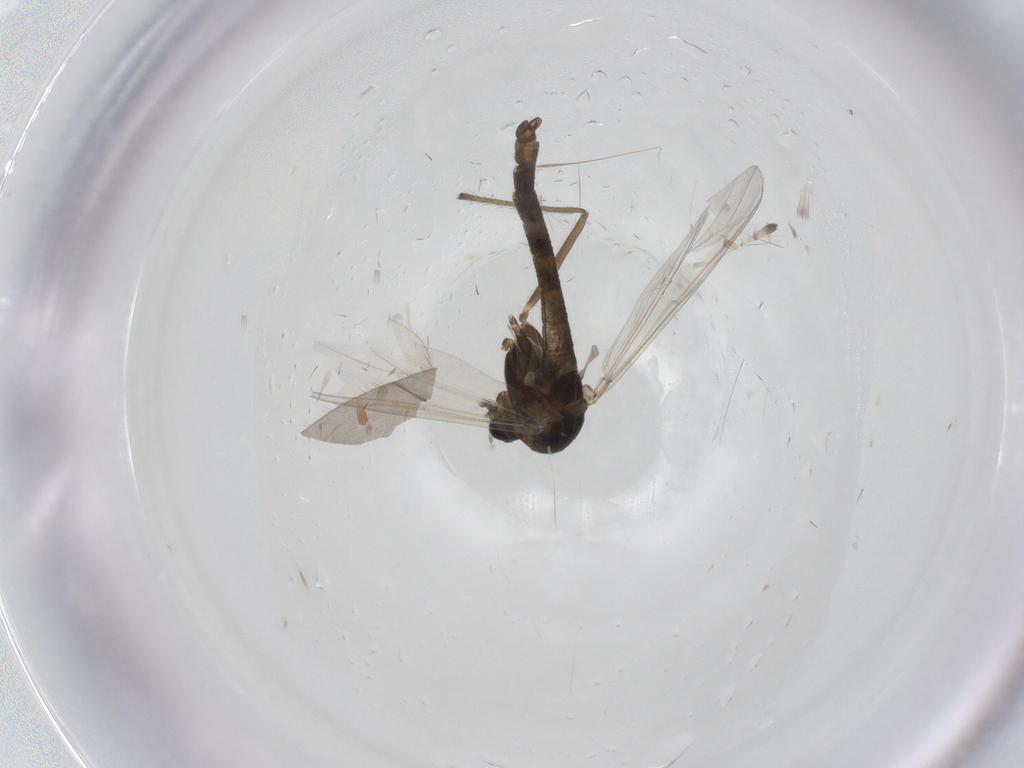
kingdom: Animalia
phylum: Arthropoda
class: Insecta
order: Diptera
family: Chironomidae
